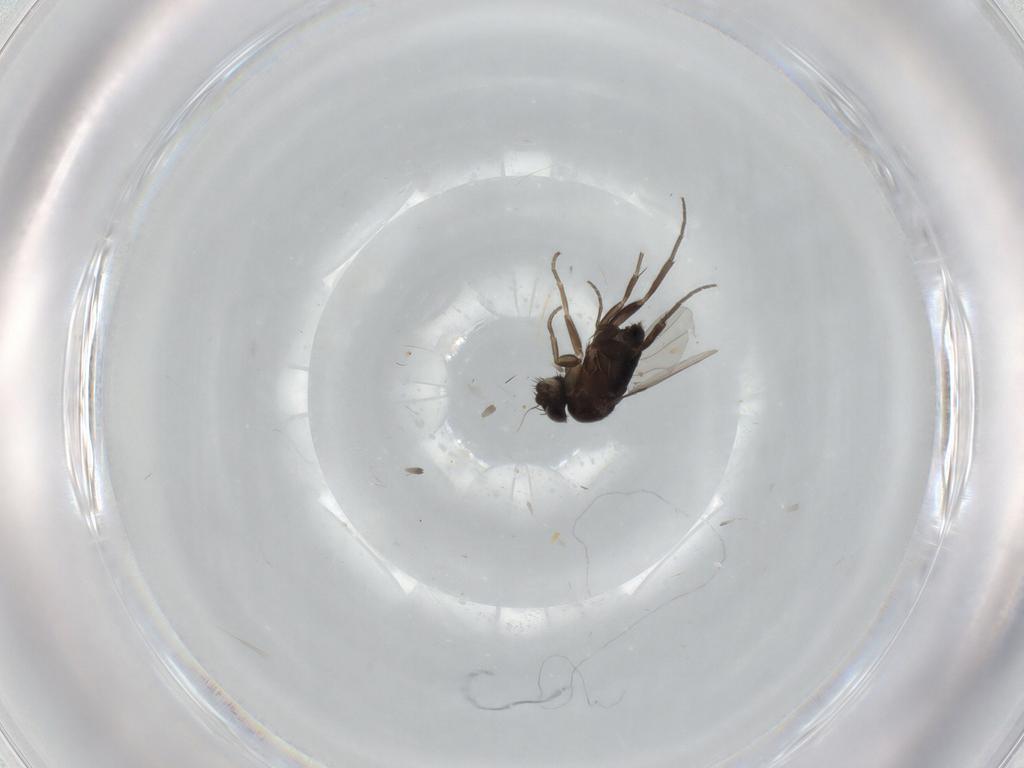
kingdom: Animalia
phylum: Arthropoda
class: Insecta
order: Diptera
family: Phoridae
